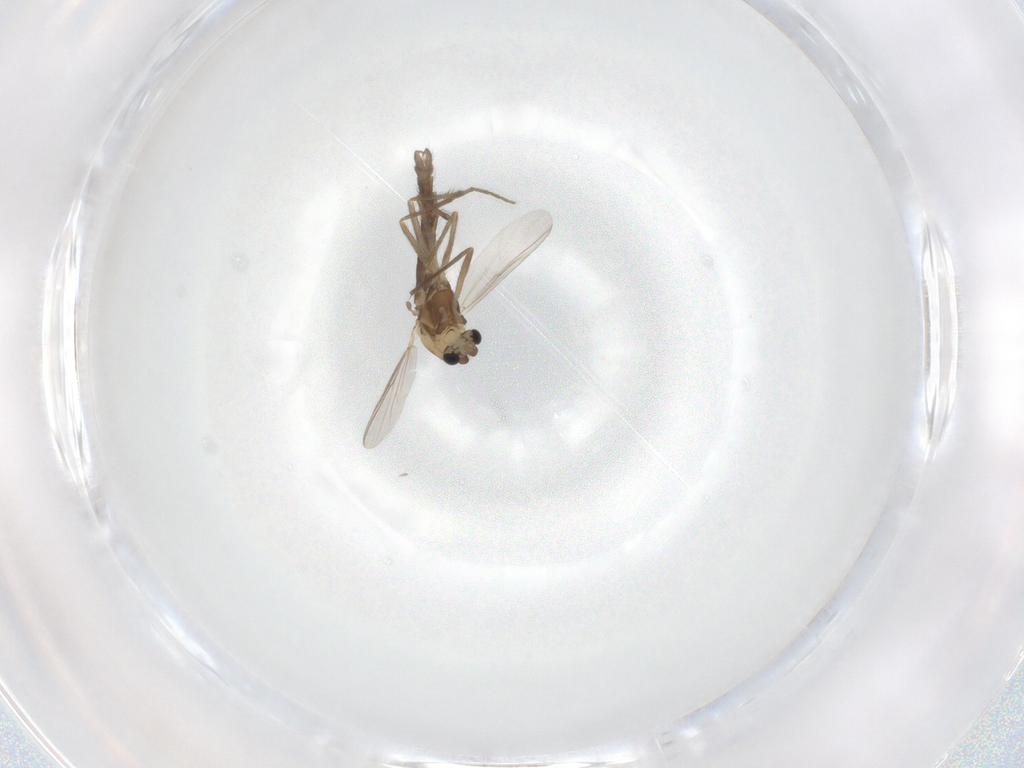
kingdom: Animalia
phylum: Arthropoda
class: Insecta
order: Diptera
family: Chironomidae
